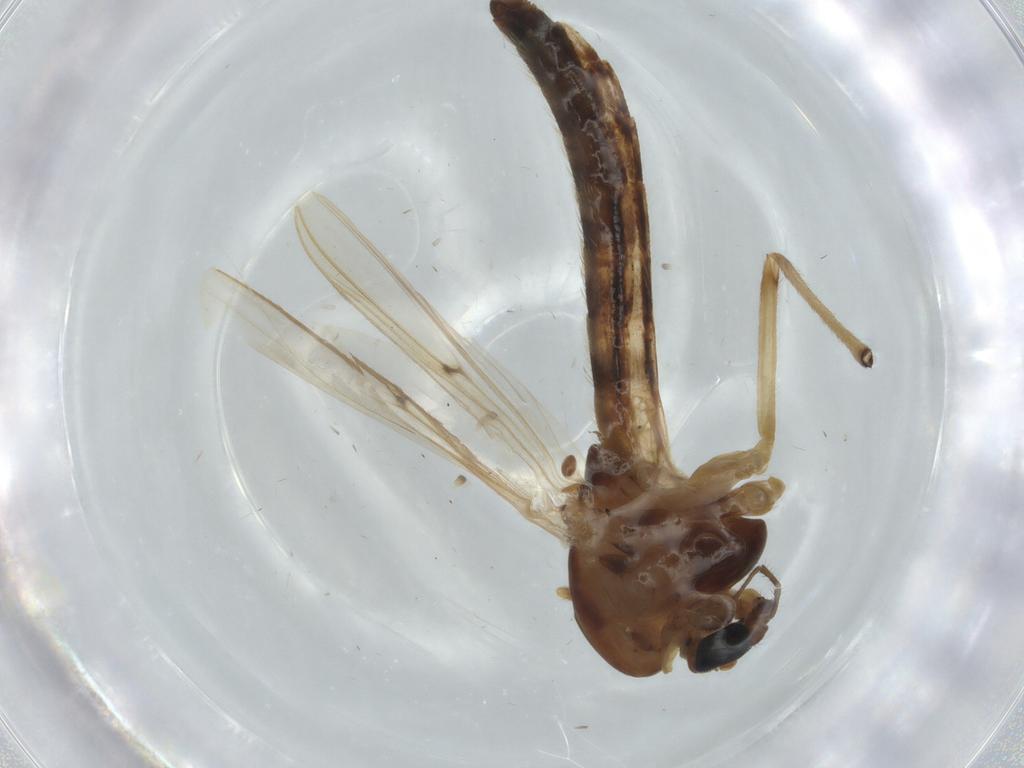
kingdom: Animalia
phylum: Arthropoda
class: Insecta
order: Diptera
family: Chironomidae
